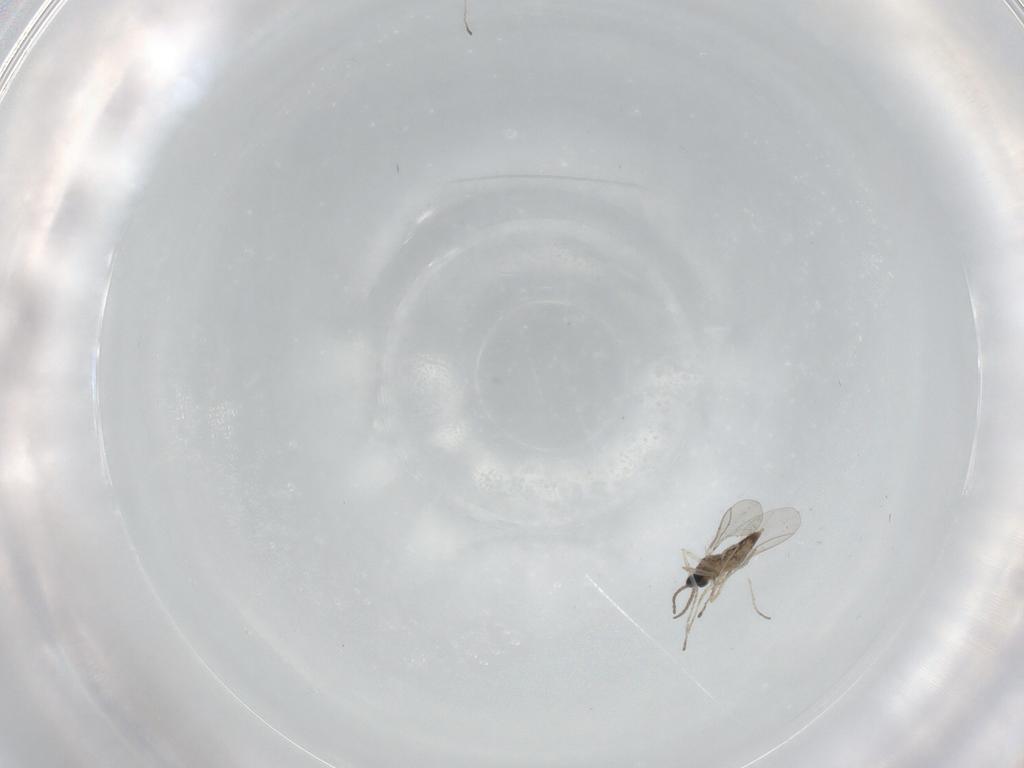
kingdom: Animalia
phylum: Arthropoda
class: Insecta
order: Diptera
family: Cecidomyiidae
